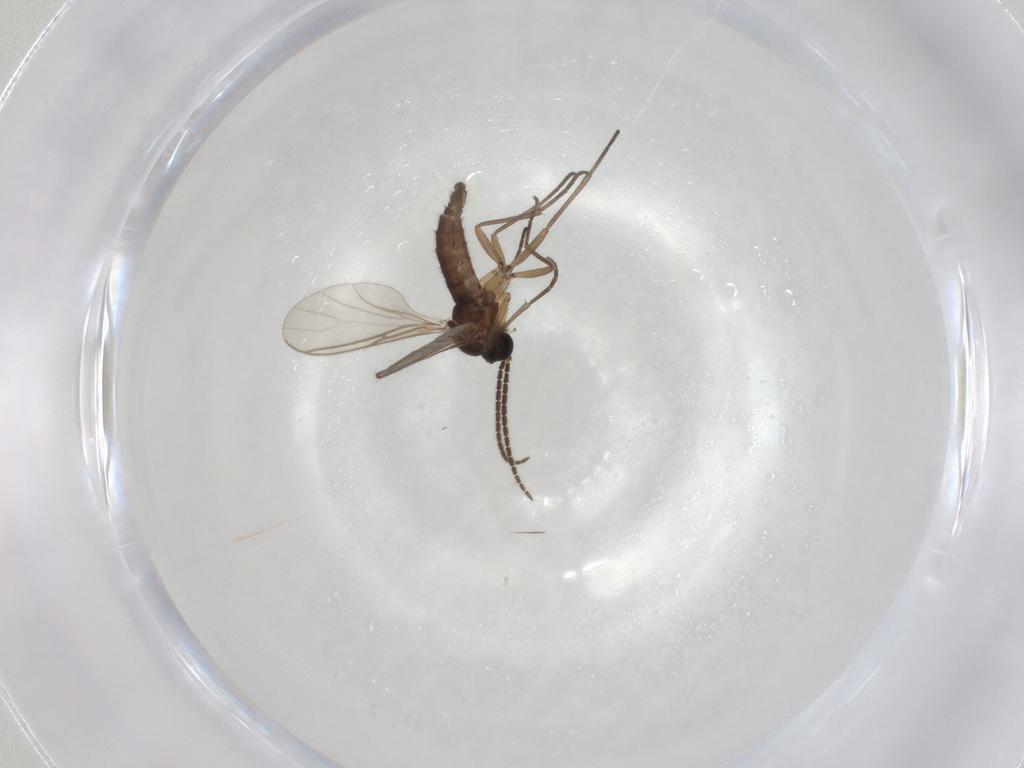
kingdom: Animalia
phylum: Arthropoda
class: Insecta
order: Diptera
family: Sciaridae
